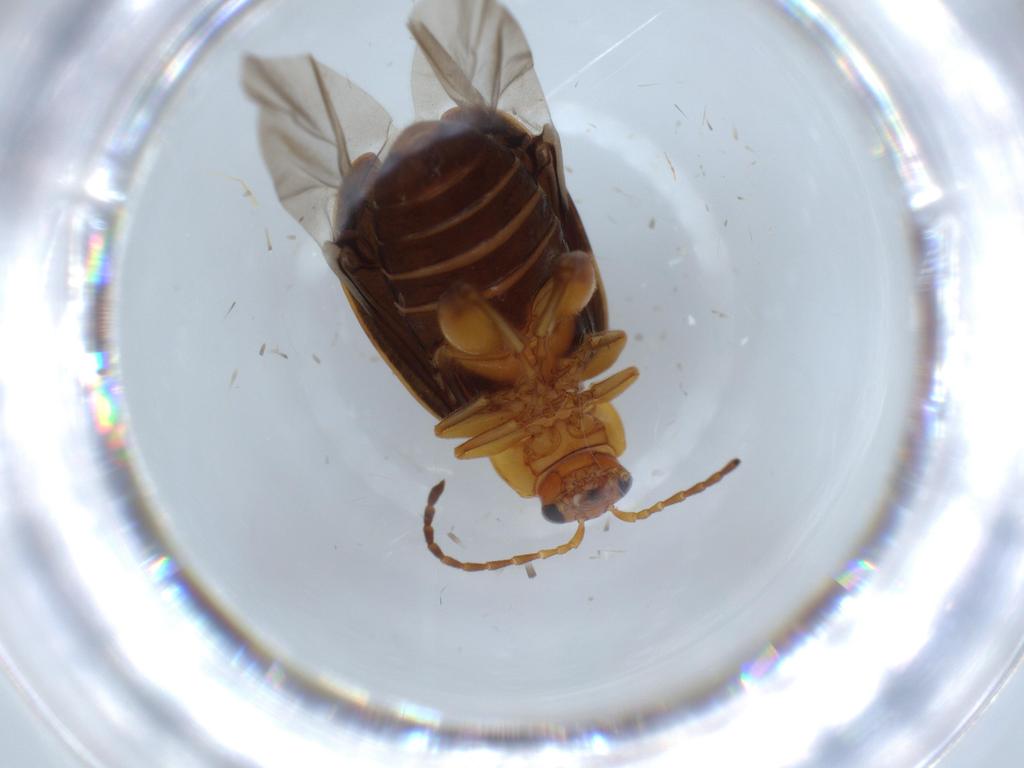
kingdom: Animalia
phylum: Arthropoda
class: Insecta
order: Coleoptera
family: Chrysomelidae
